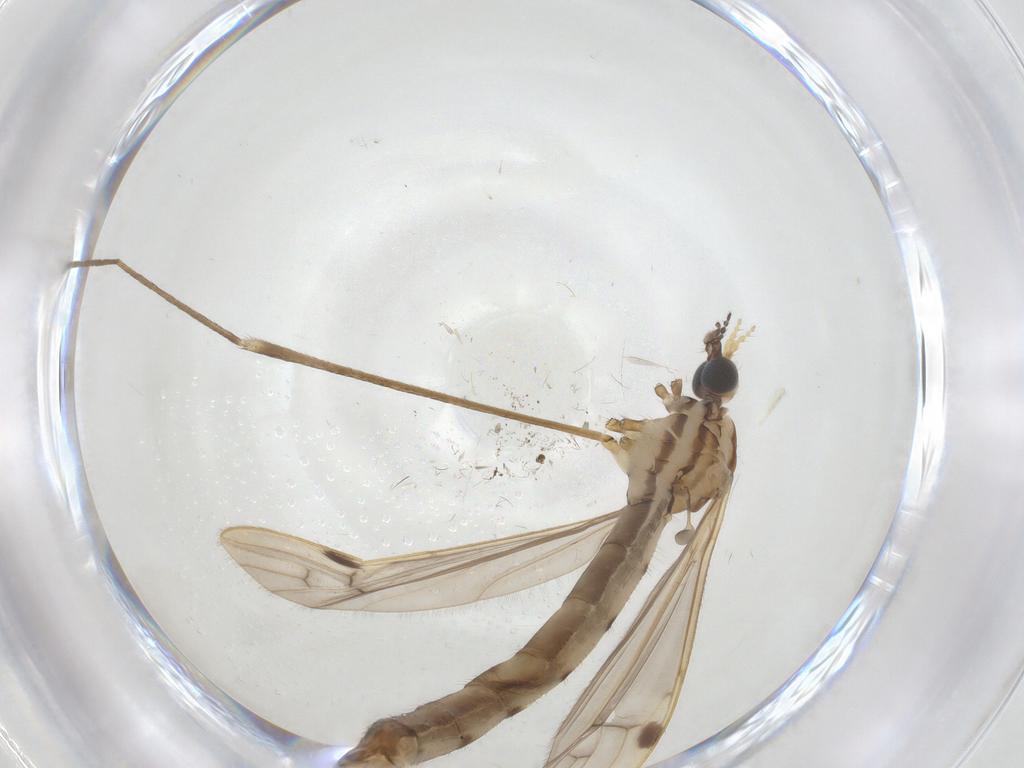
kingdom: Animalia
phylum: Arthropoda
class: Insecta
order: Diptera
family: Limoniidae
